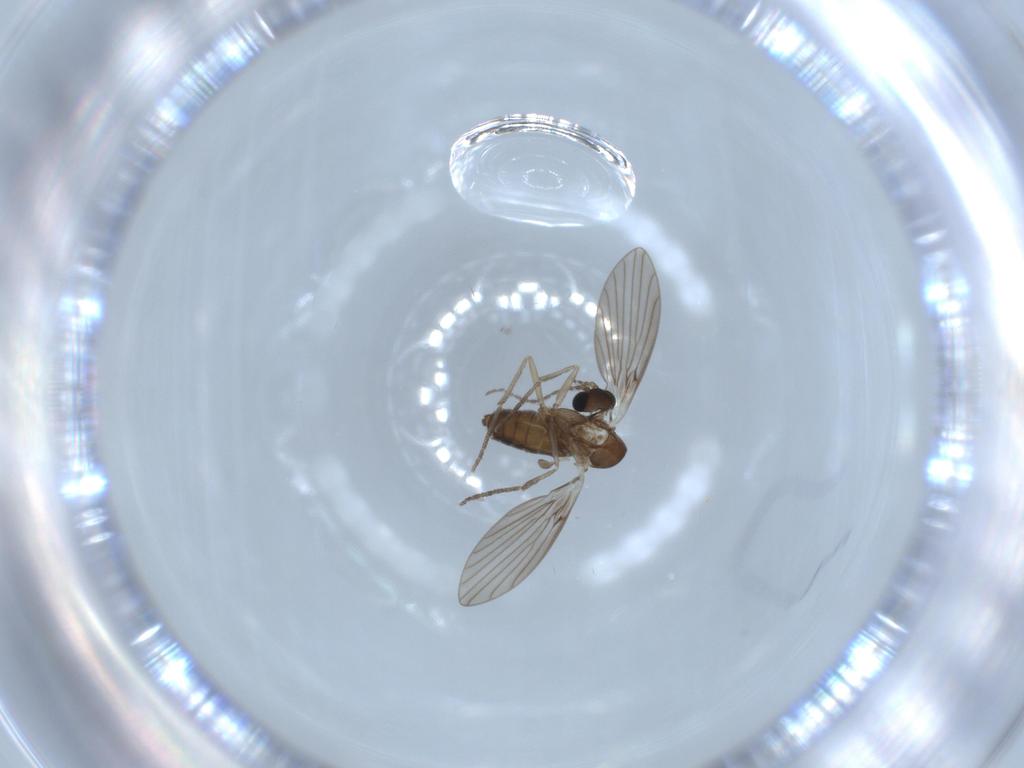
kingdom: Animalia
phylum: Arthropoda
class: Insecta
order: Diptera
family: Psychodidae
